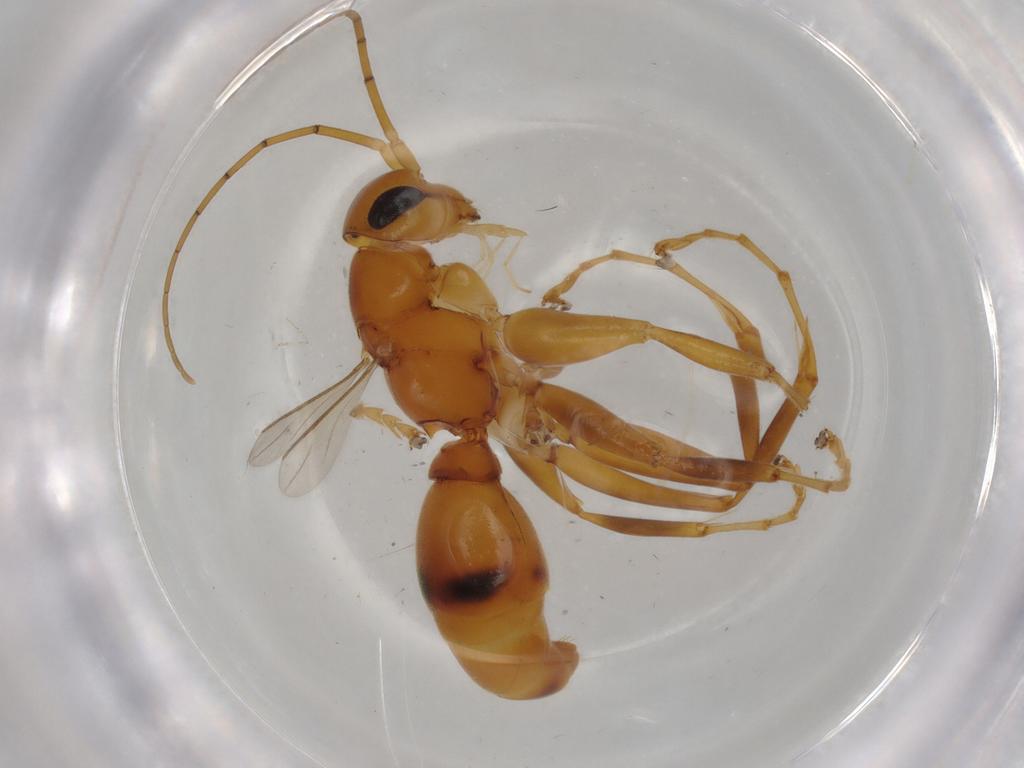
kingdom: Animalia
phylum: Arthropoda
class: Insecta
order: Hymenoptera
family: Rhopalosomatidae
